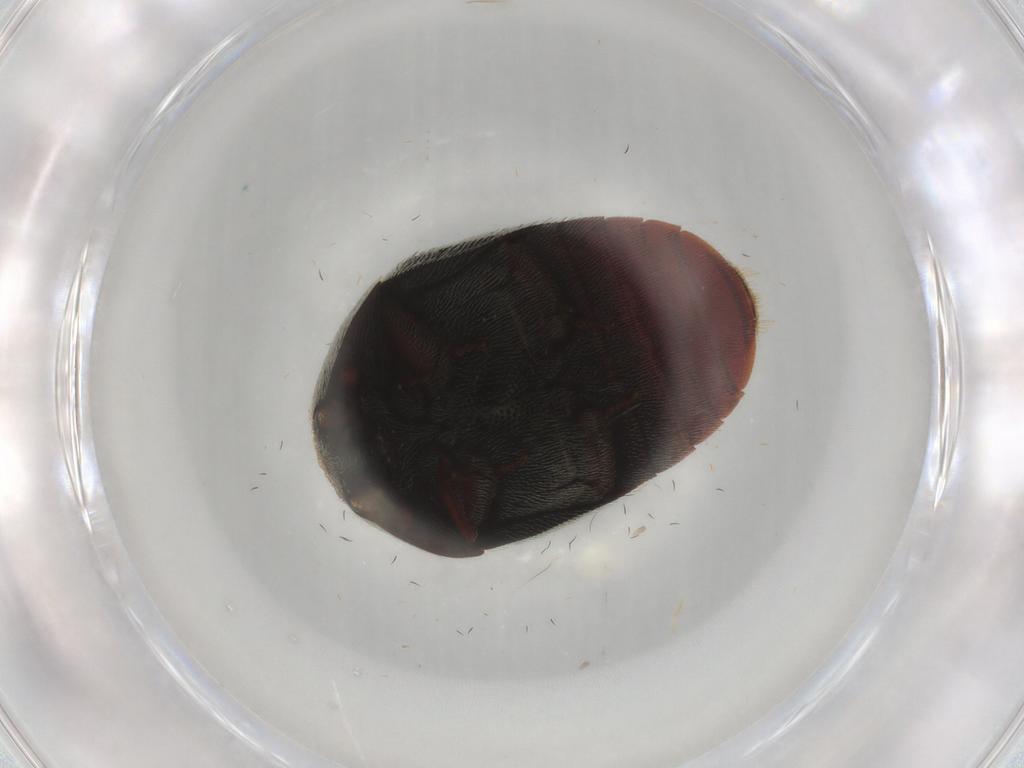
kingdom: Animalia
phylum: Arthropoda
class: Insecta
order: Coleoptera
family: Dermestidae
